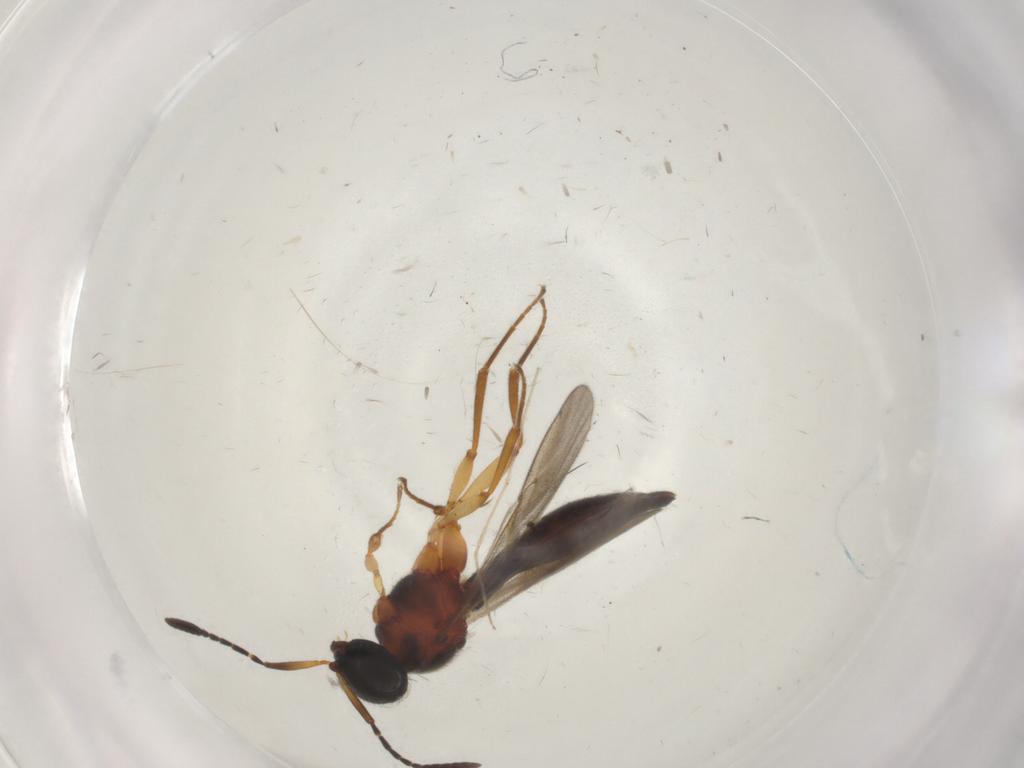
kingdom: Animalia
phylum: Arthropoda
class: Insecta
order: Hymenoptera
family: Scelionidae
